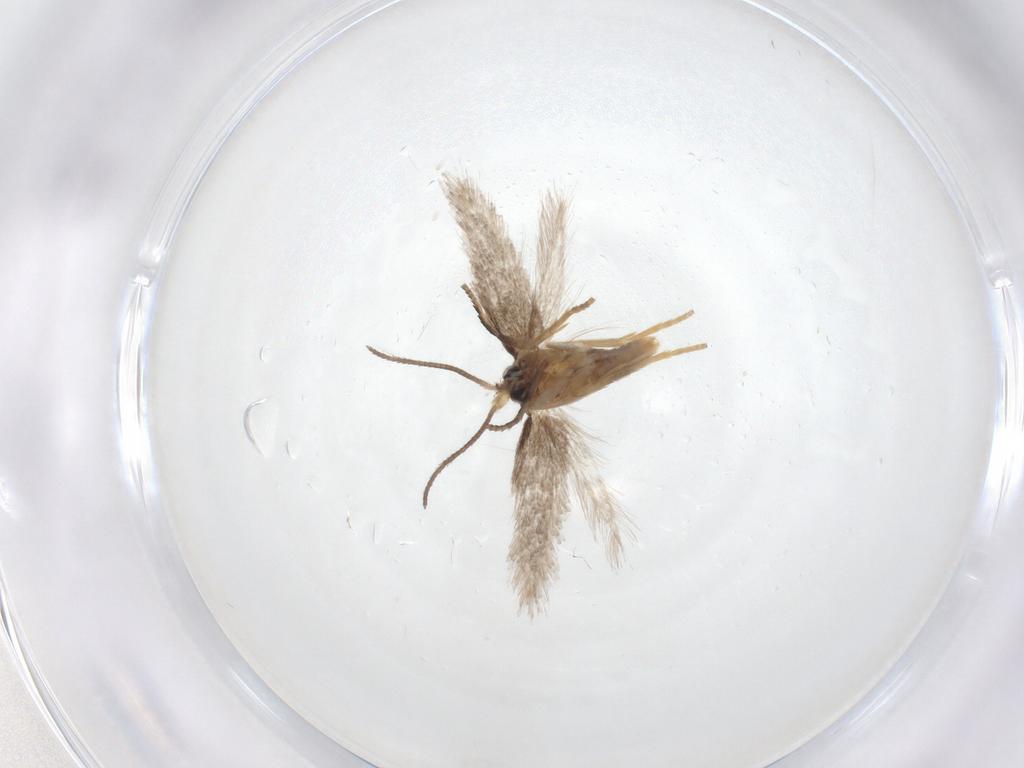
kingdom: Animalia
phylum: Arthropoda
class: Insecta
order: Lepidoptera
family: Nepticulidae
